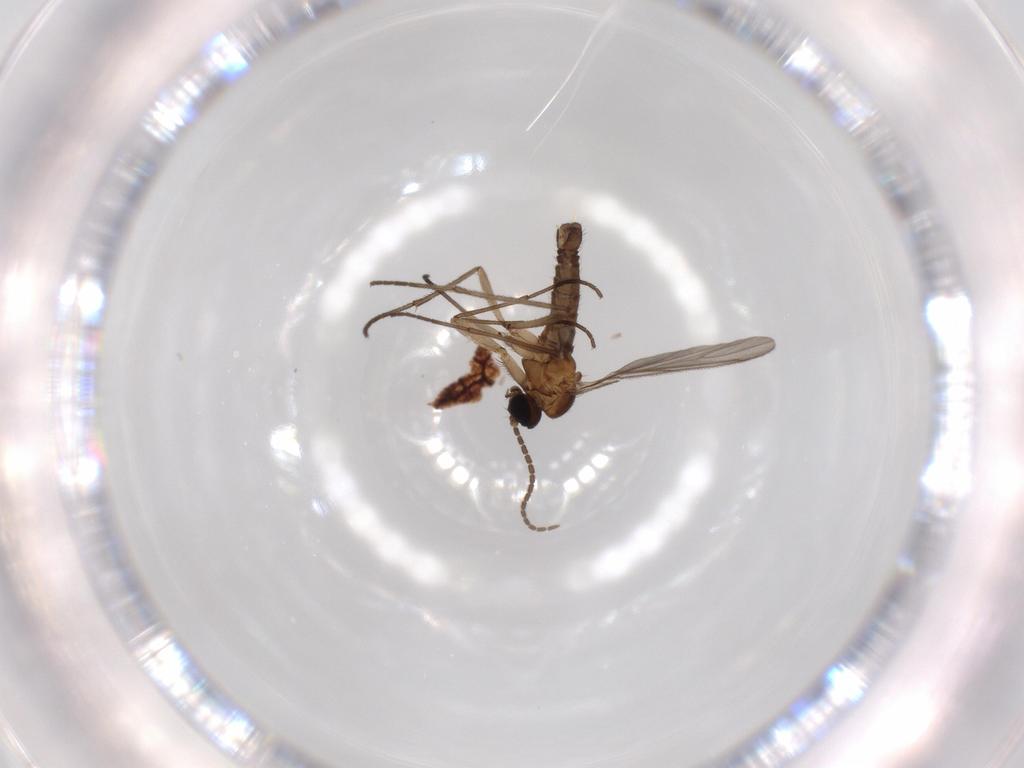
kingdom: Animalia
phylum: Arthropoda
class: Insecta
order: Diptera
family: Sciaridae
